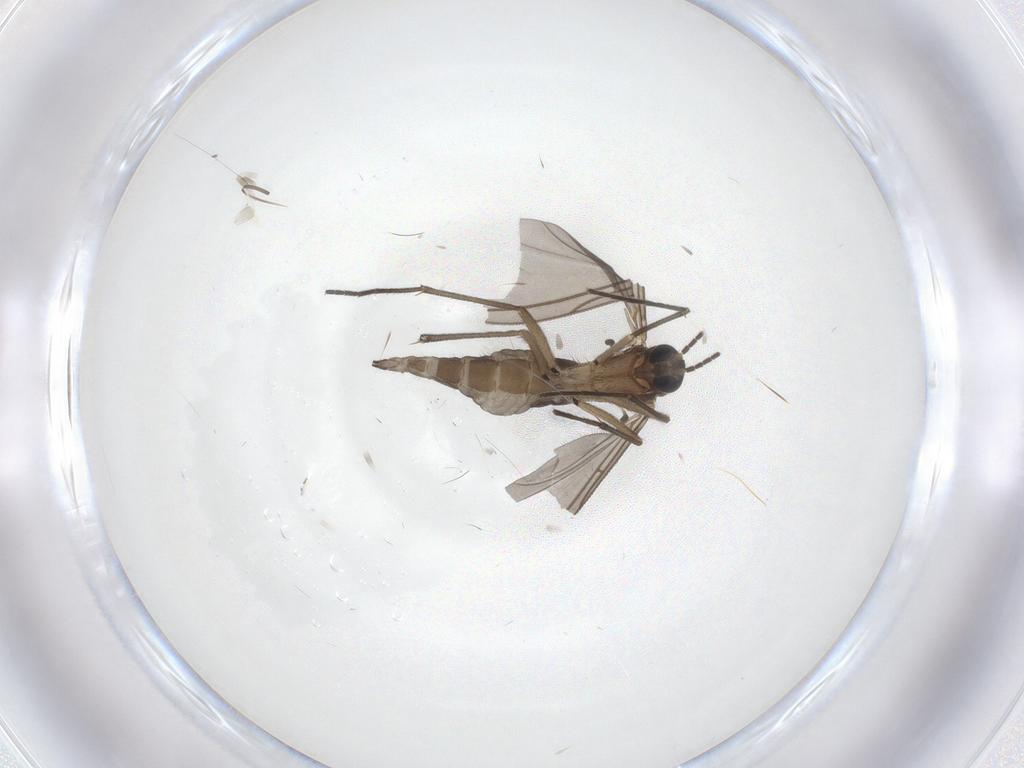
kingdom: Animalia
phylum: Arthropoda
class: Insecta
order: Diptera
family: Sciaridae
